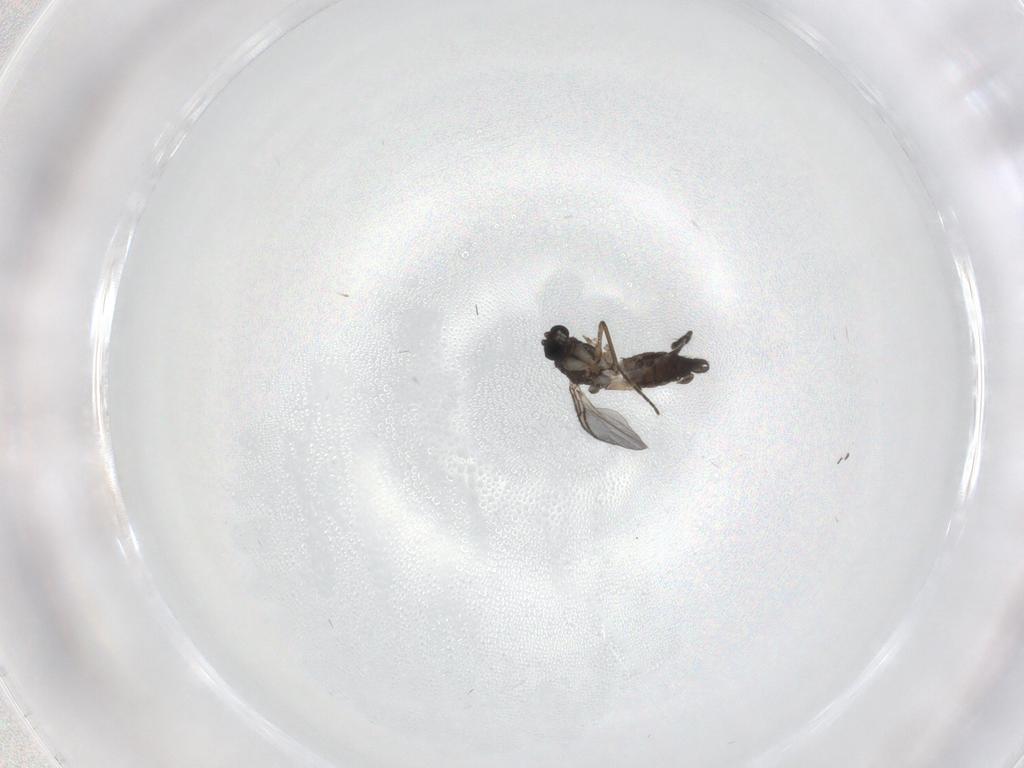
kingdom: Animalia
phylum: Arthropoda
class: Insecta
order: Diptera
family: Sciaridae
